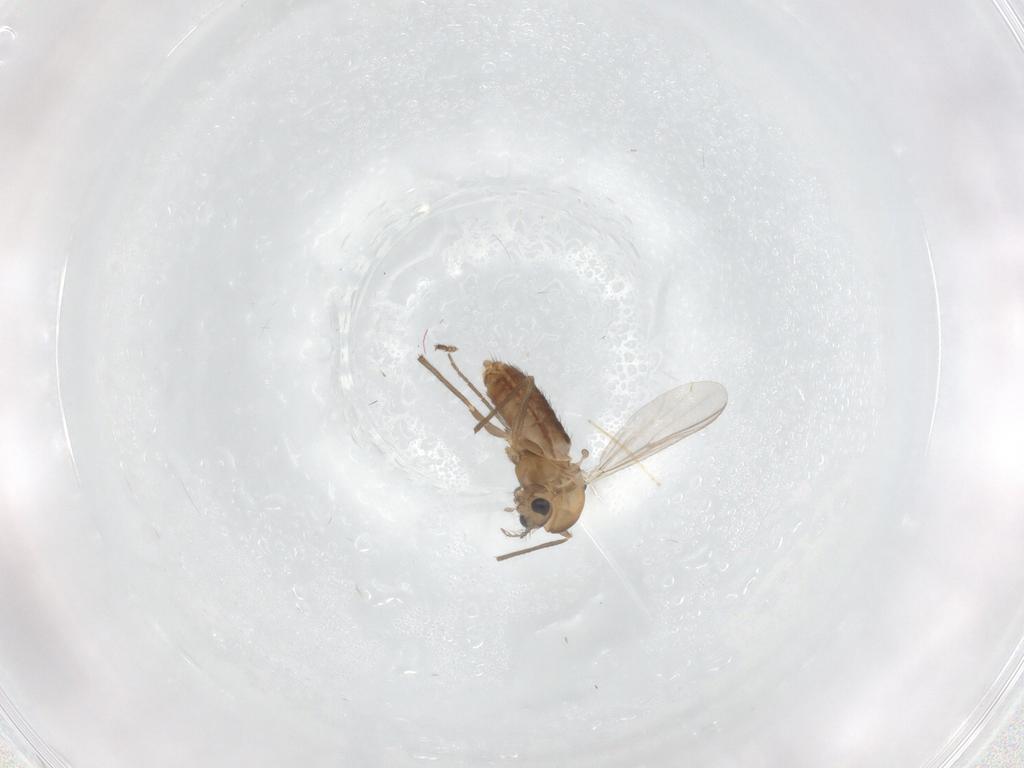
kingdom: Animalia
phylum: Arthropoda
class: Insecta
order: Diptera
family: Chironomidae
